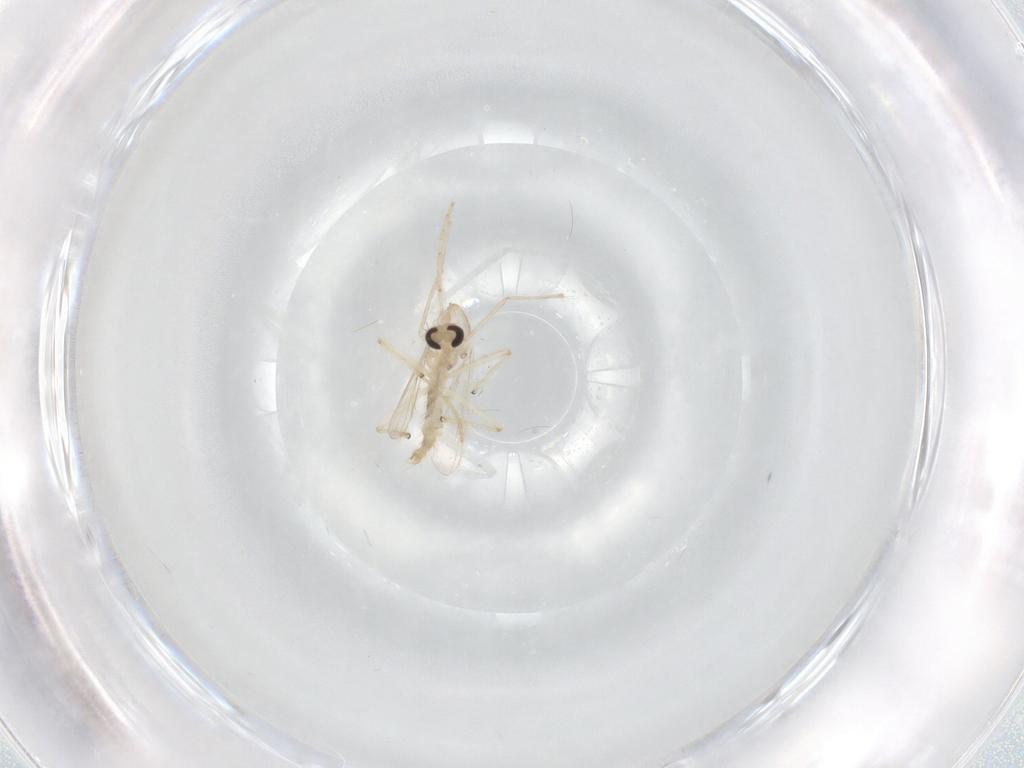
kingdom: Animalia
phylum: Arthropoda
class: Insecta
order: Diptera
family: Chironomidae
